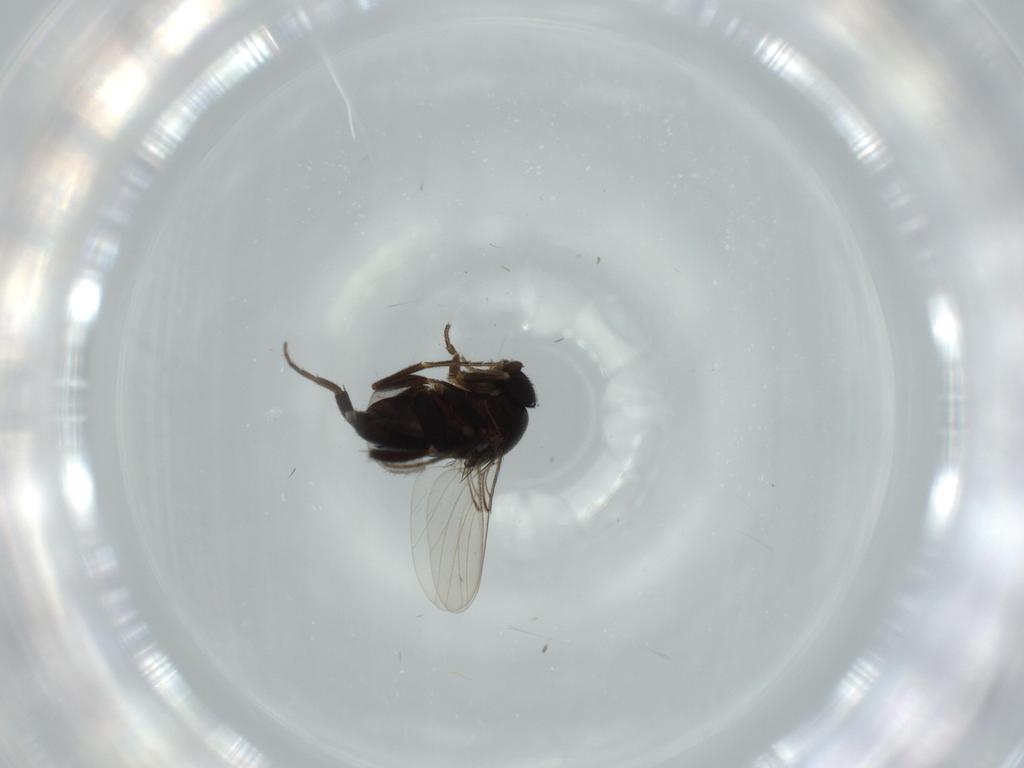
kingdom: Animalia
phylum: Arthropoda
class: Insecta
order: Diptera
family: Phoridae
